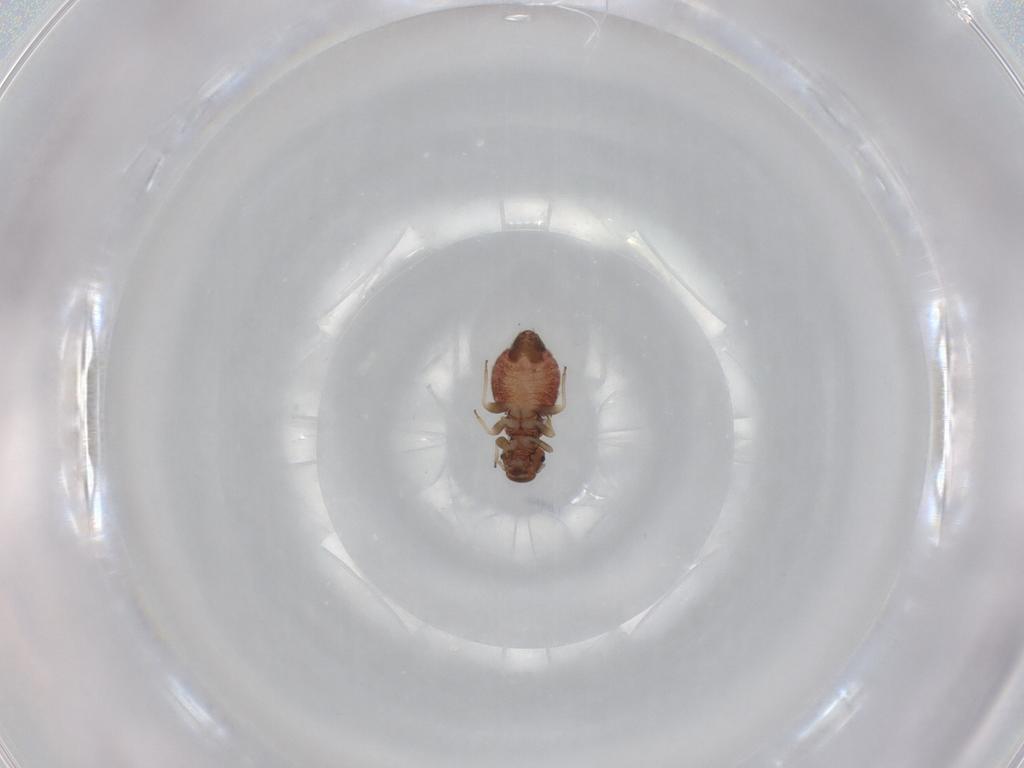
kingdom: Animalia
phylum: Arthropoda
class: Insecta
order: Psocodea
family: Archipsocidae
